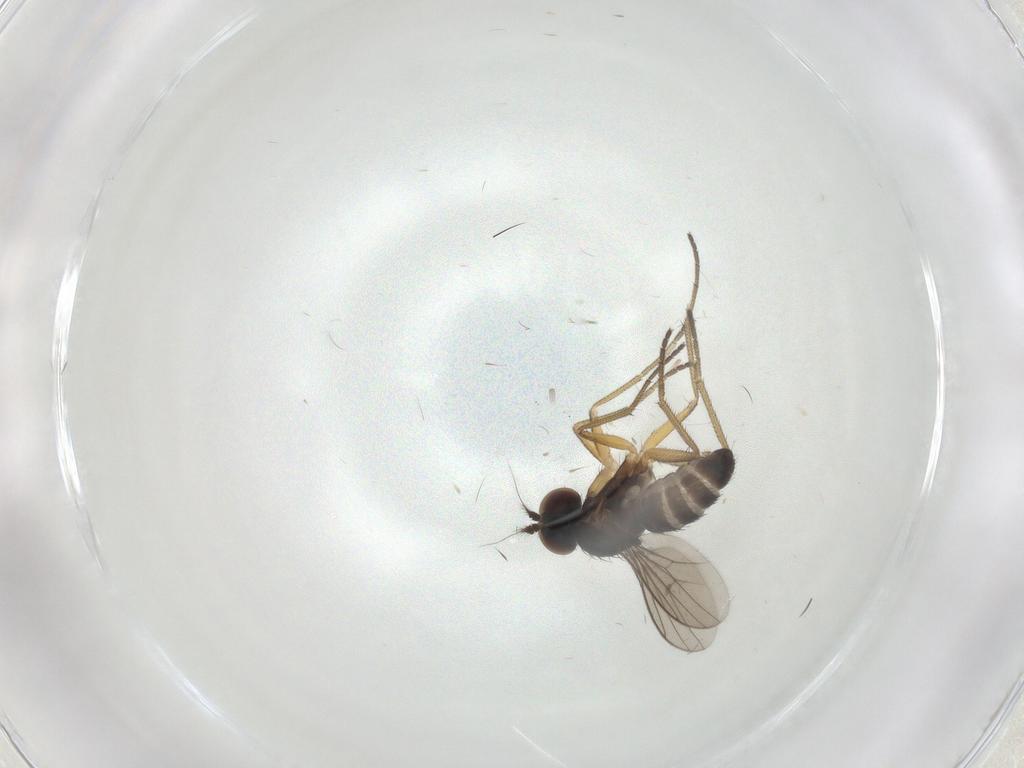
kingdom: Animalia
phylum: Arthropoda
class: Insecta
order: Diptera
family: Dolichopodidae
